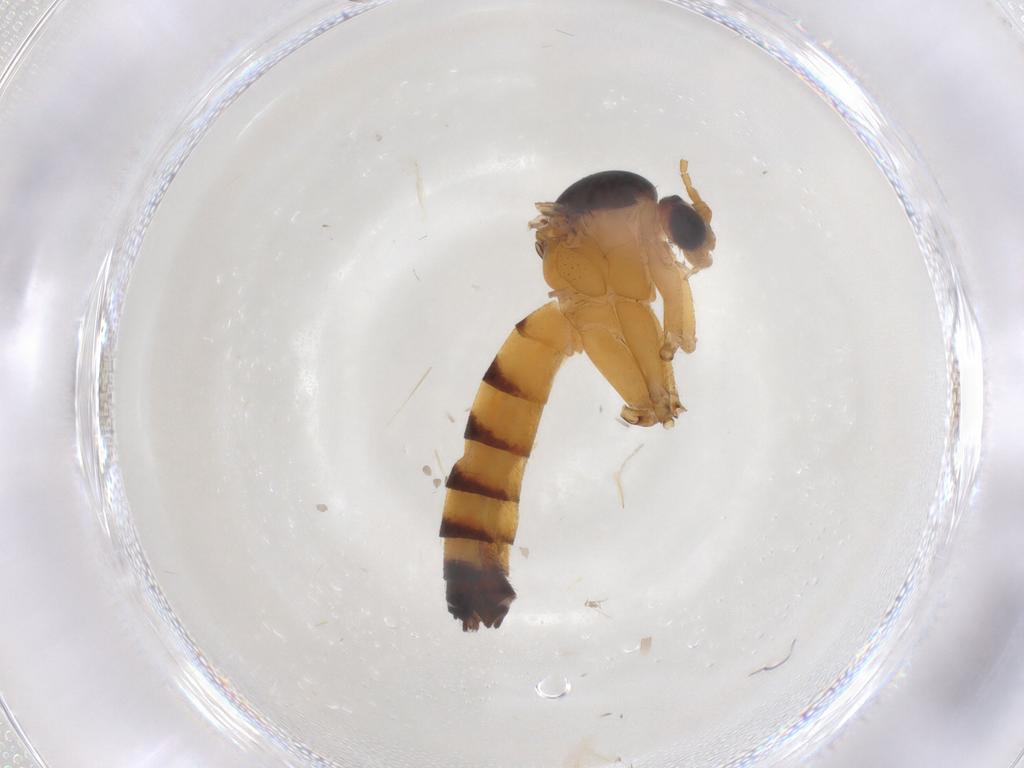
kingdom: Animalia
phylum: Arthropoda
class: Insecta
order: Diptera
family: Mycetophilidae
